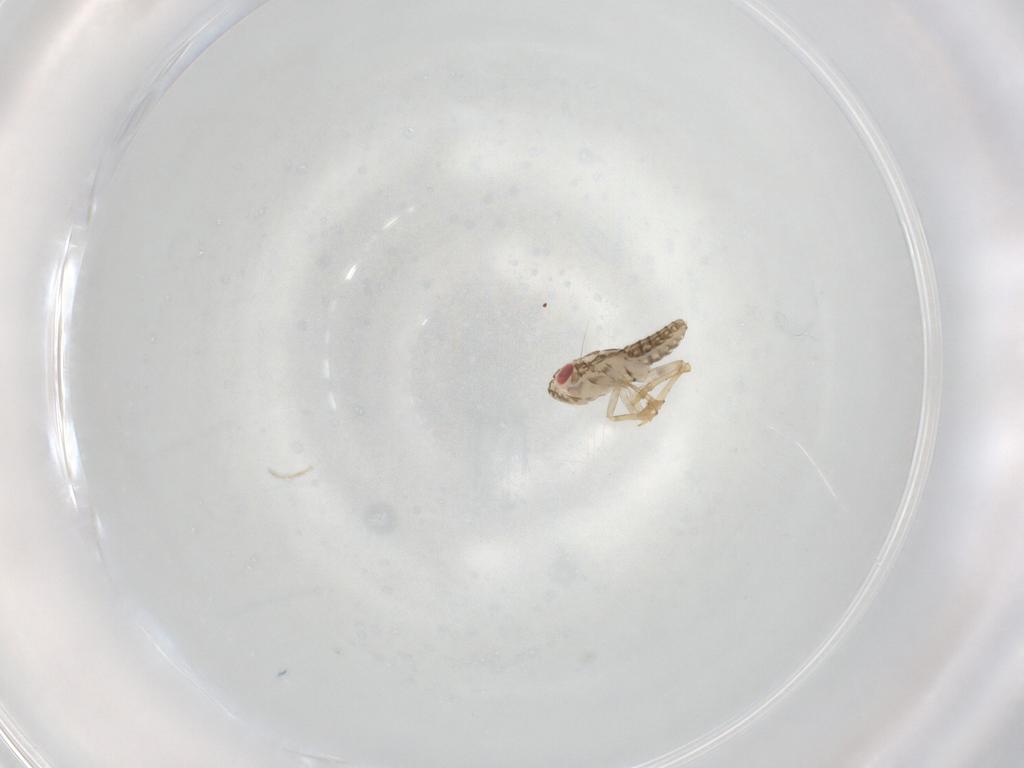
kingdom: Animalia
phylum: Arthropoda
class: Insecta
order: Hemiptera
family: Delphacidae
